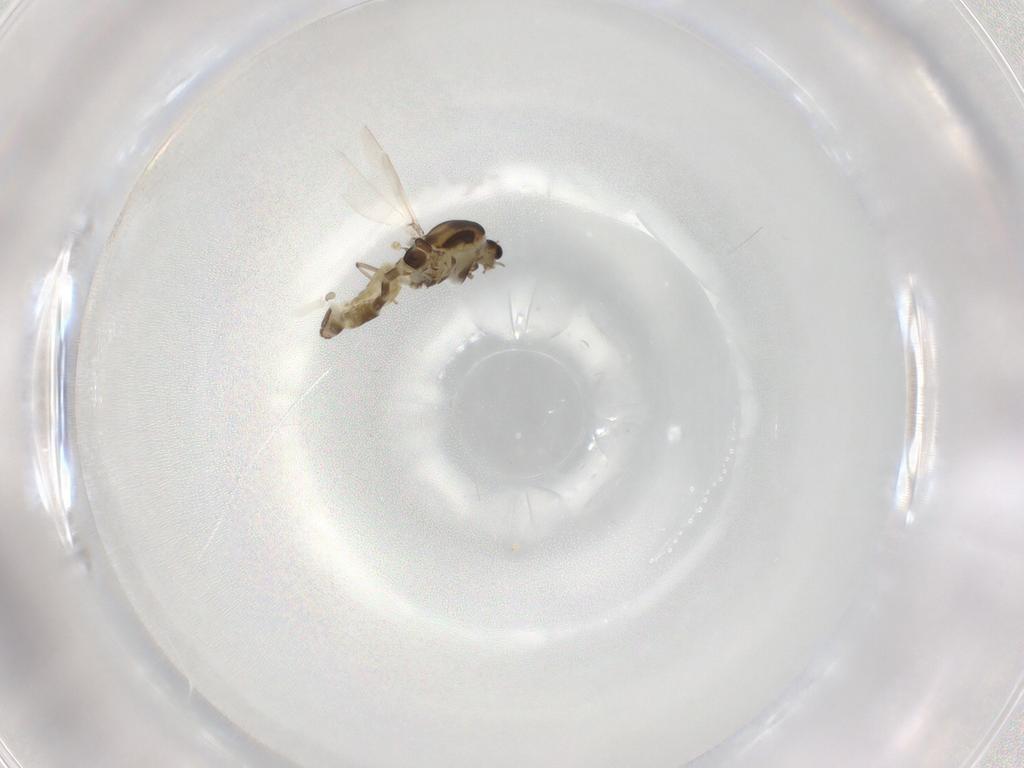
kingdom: Animalia
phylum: Arthropoda
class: Insecta
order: Diptera
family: Chironomidae
